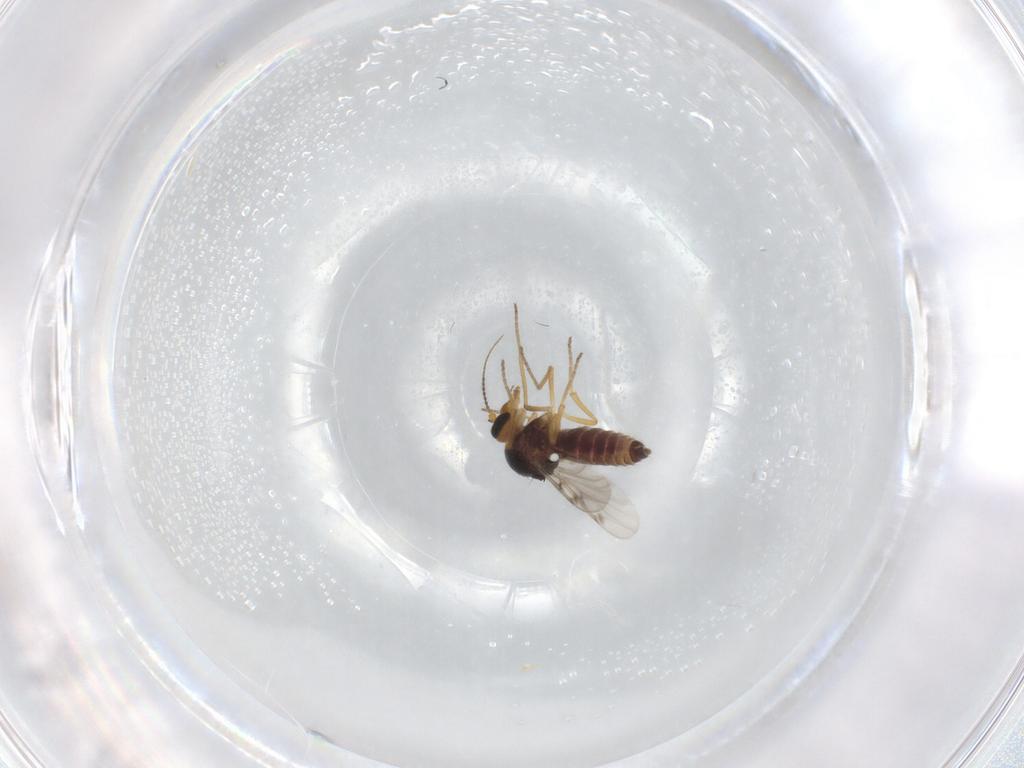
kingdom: Animalia
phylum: Arthropoda
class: Insecta
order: Diptera
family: Ceratopogonidae
